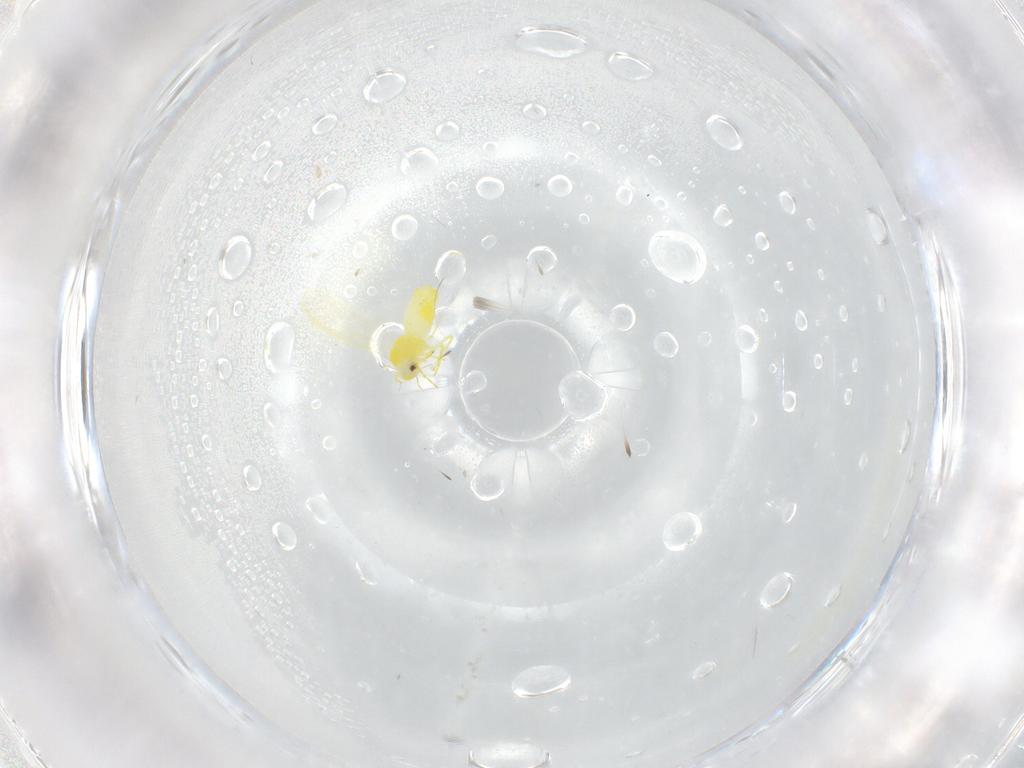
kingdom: Animalia
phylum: Arthropoda
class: Insecta
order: Hemiptera
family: Aleyrodidae
